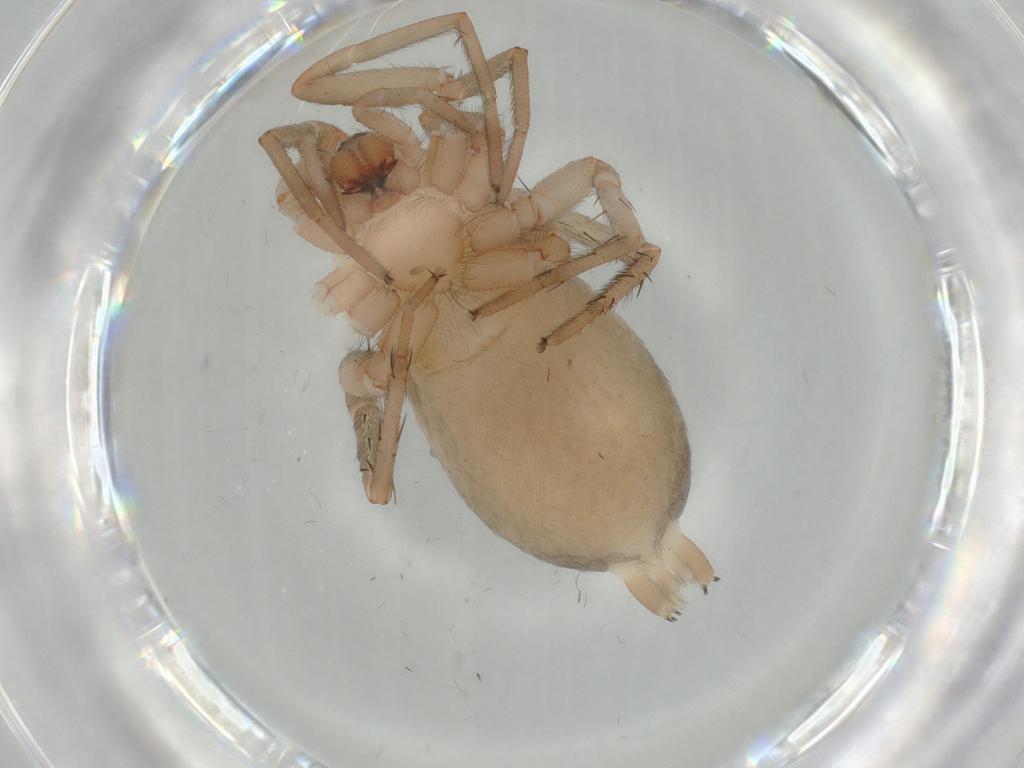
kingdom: Animalia
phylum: Arthropoda
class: Arachnida
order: Araneae
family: Gnaphosidae
